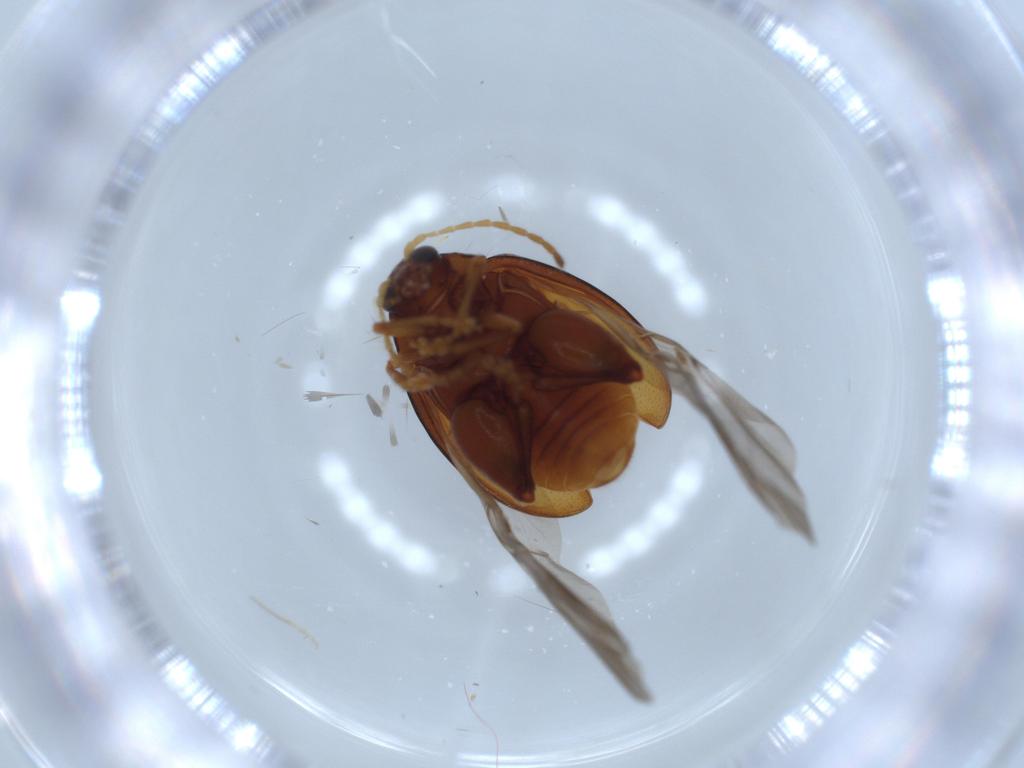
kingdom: Animalia
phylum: Arthropoda
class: Insecta
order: Coleoptera
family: Chrysomelidae
